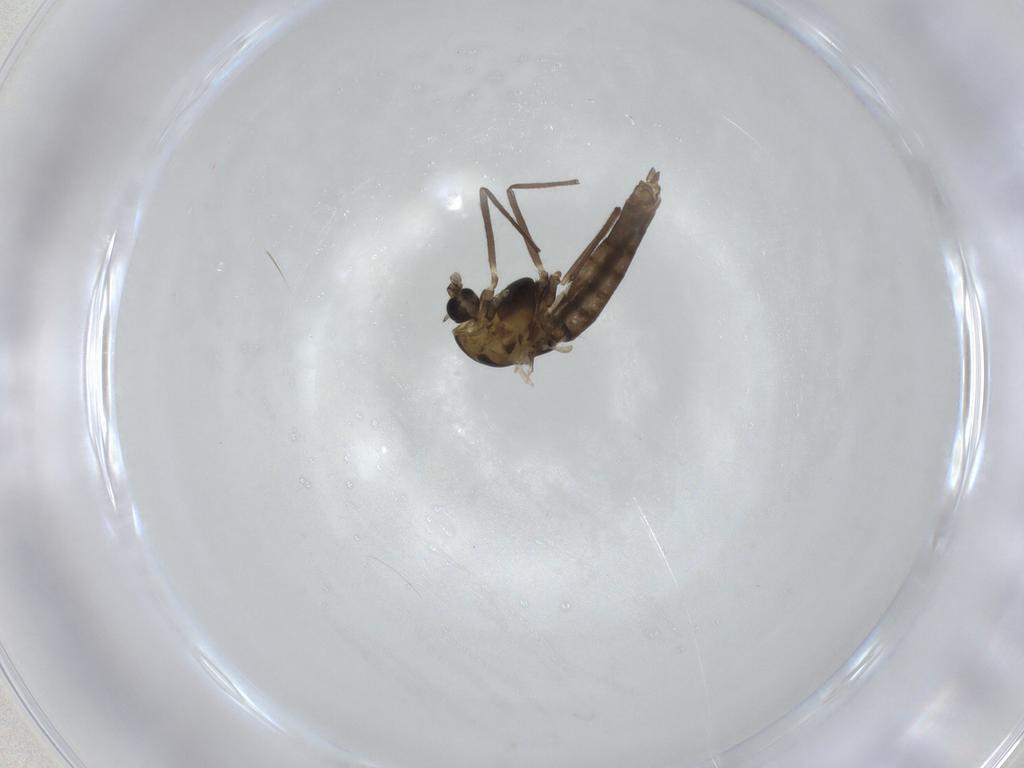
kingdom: Animalia
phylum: Arthropoda
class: Insecta
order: Diptera
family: Chironomidae
